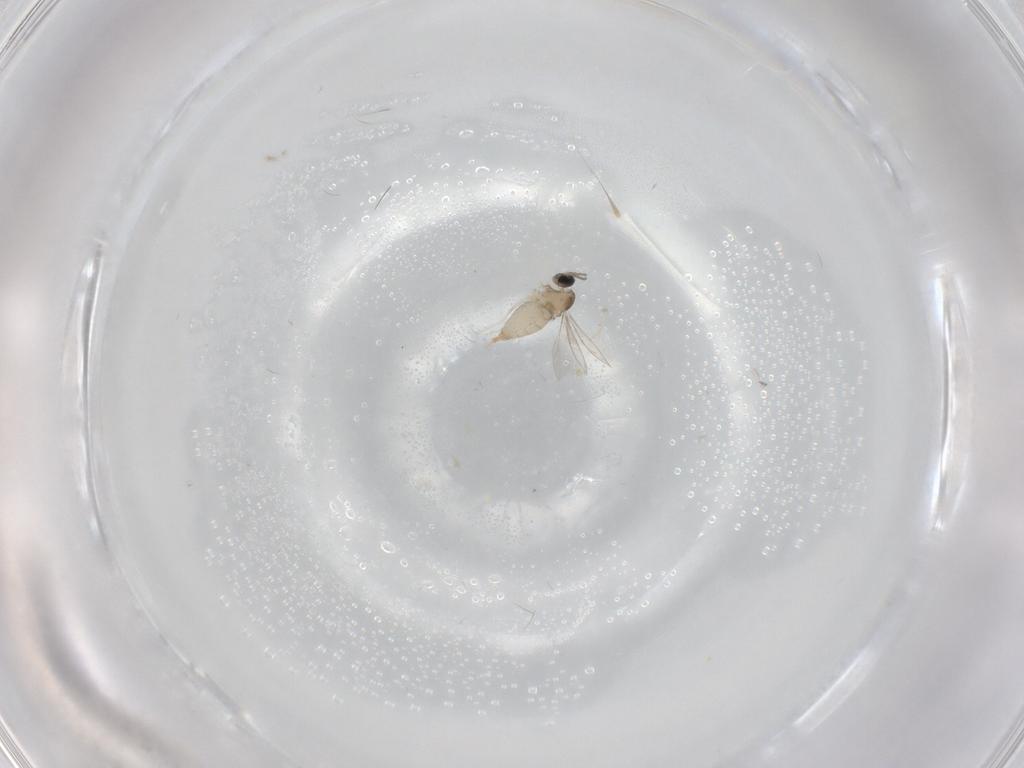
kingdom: Animalia
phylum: Arthropoda
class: Insecta
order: Diptera
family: Cecidomyiidae
